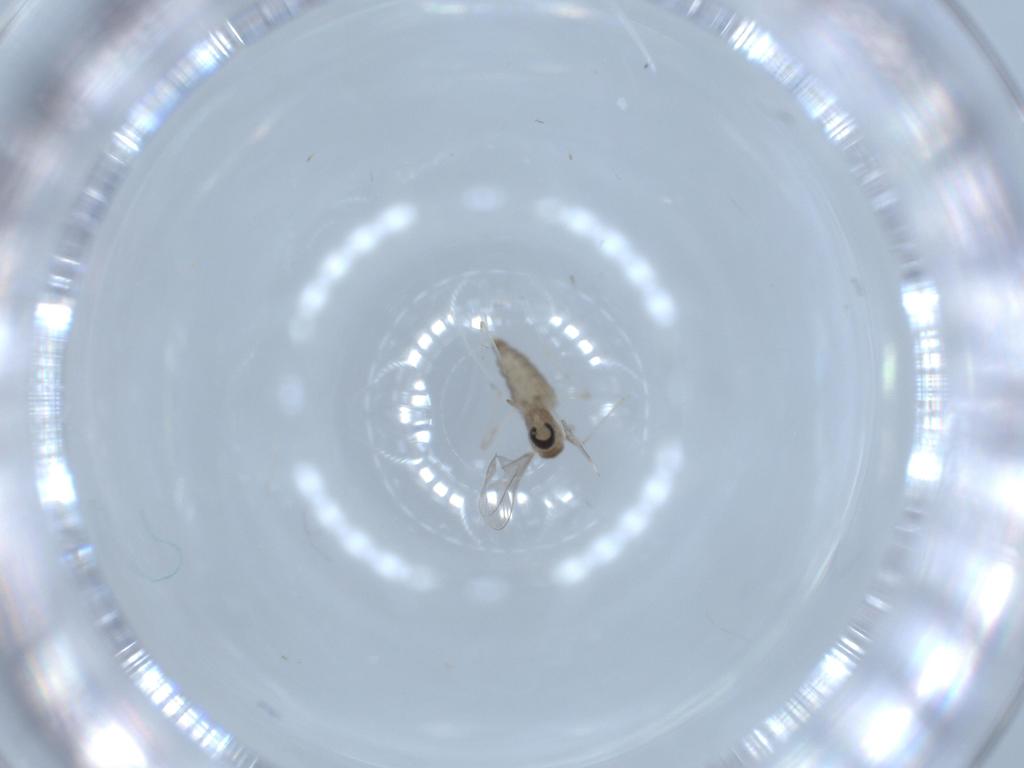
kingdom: Animalia
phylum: Arthropoda
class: Insecta
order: Diptera
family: Cecidomyiidae
